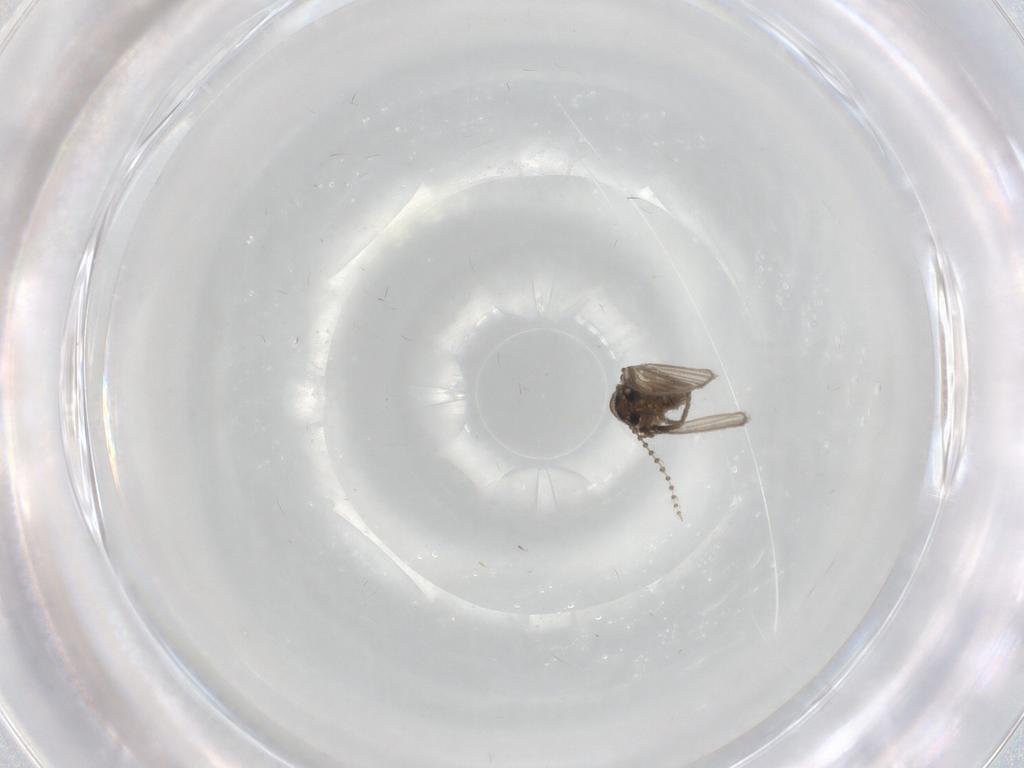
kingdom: Animalia
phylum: Arthropoda
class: Insecta
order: Diptera
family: Psychodidae
